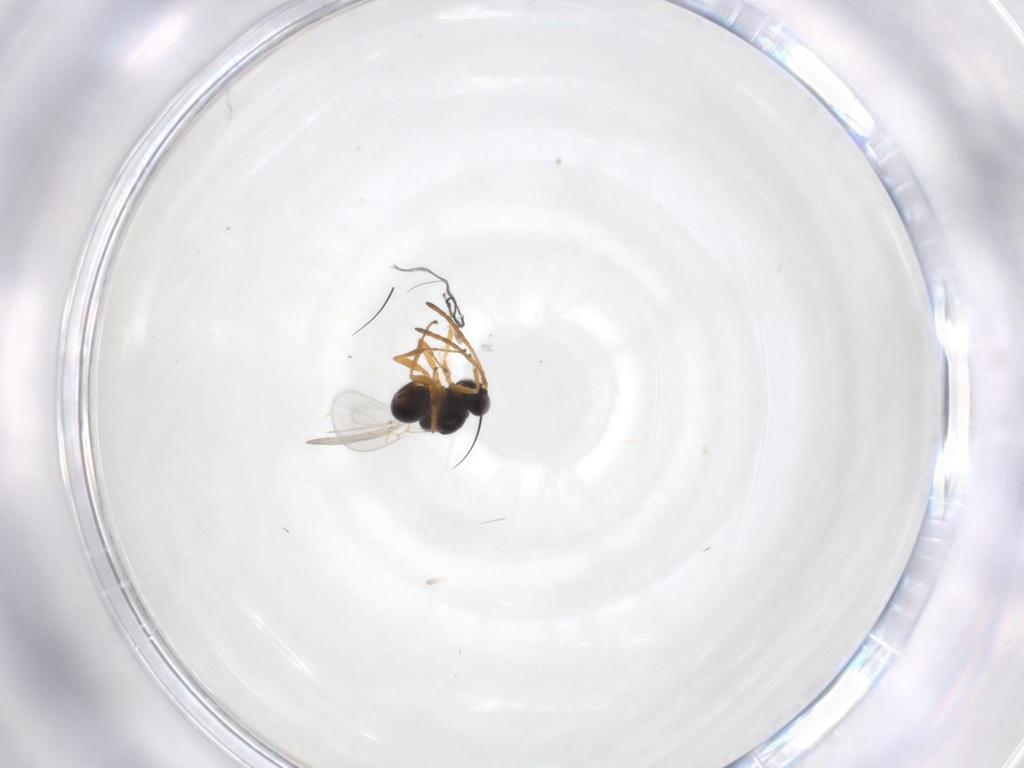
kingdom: Animalia
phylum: Arthropoda
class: Insecta
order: Hymenoptera
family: Figitidae
